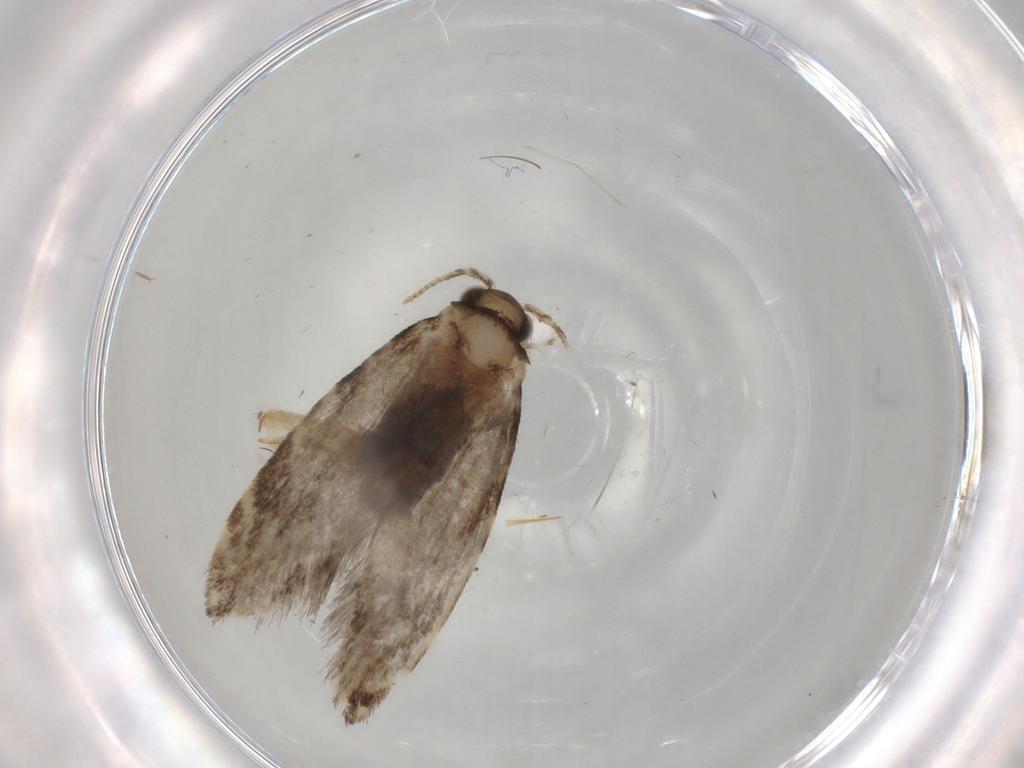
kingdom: Animalia
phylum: Arthropoda
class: Insecta
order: Lepidoptera
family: Tineidae
